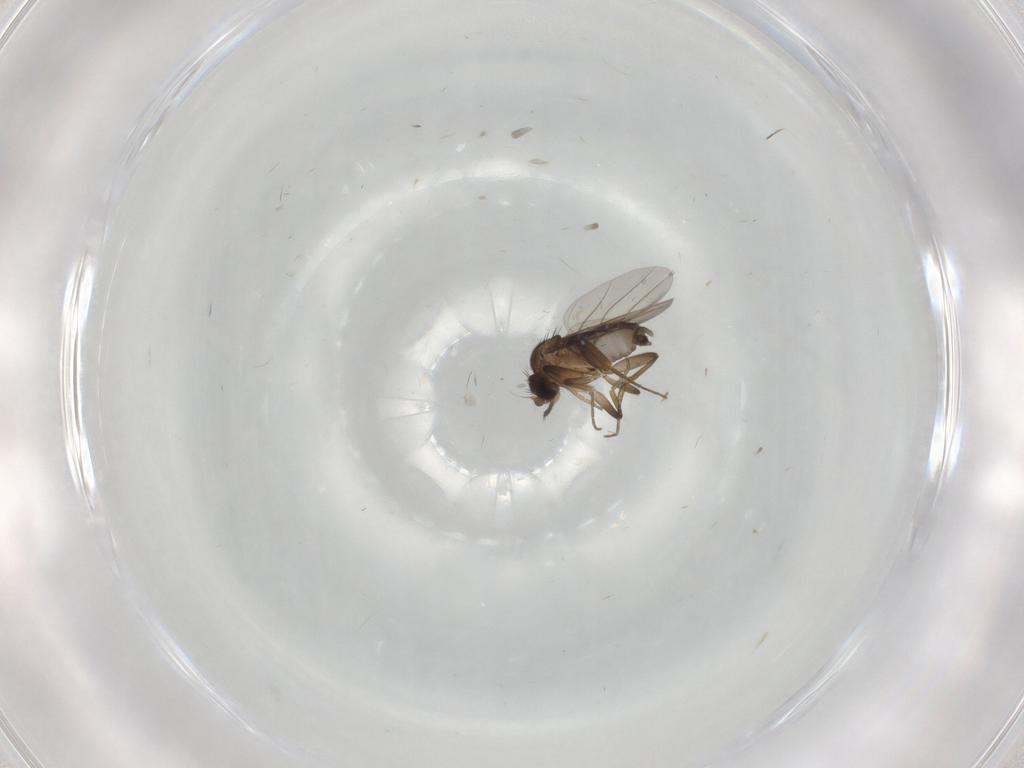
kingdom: Animalia
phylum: Arthropoda
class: Insecta
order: Diptera
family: Phoridae
